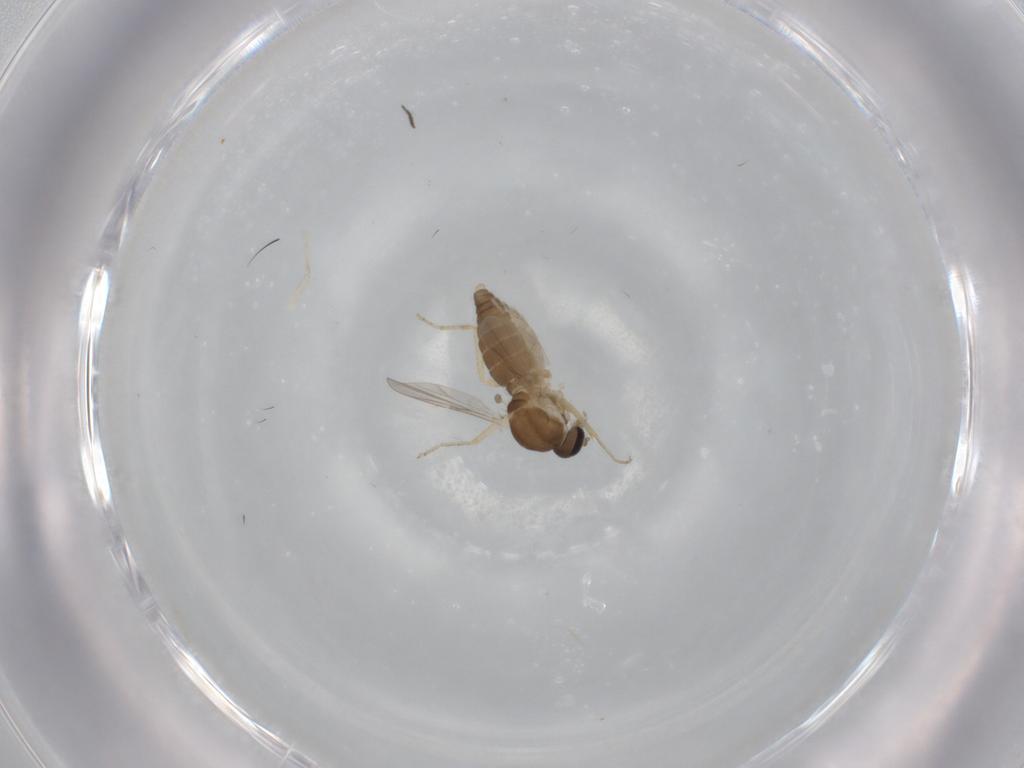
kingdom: Animalia
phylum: Arthropoda
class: Insecta
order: Diptera
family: Ceratopogonidae
